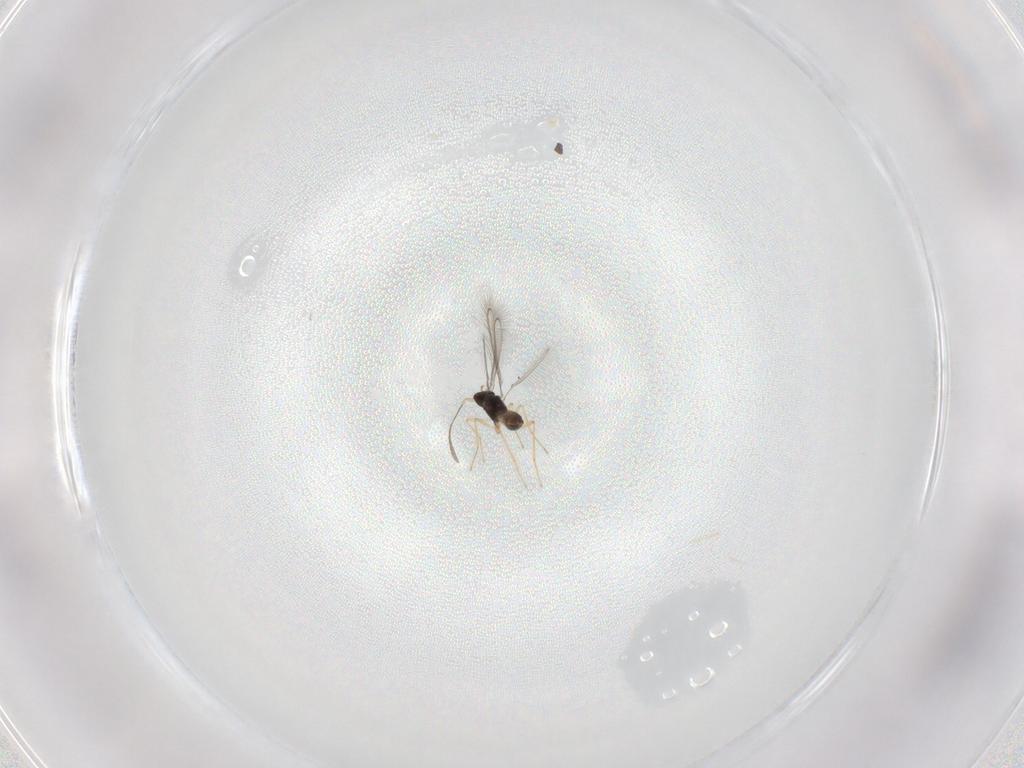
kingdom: Animalia
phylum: Arthropoda
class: Insecta
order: Hymenoptera
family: Mymaridae
